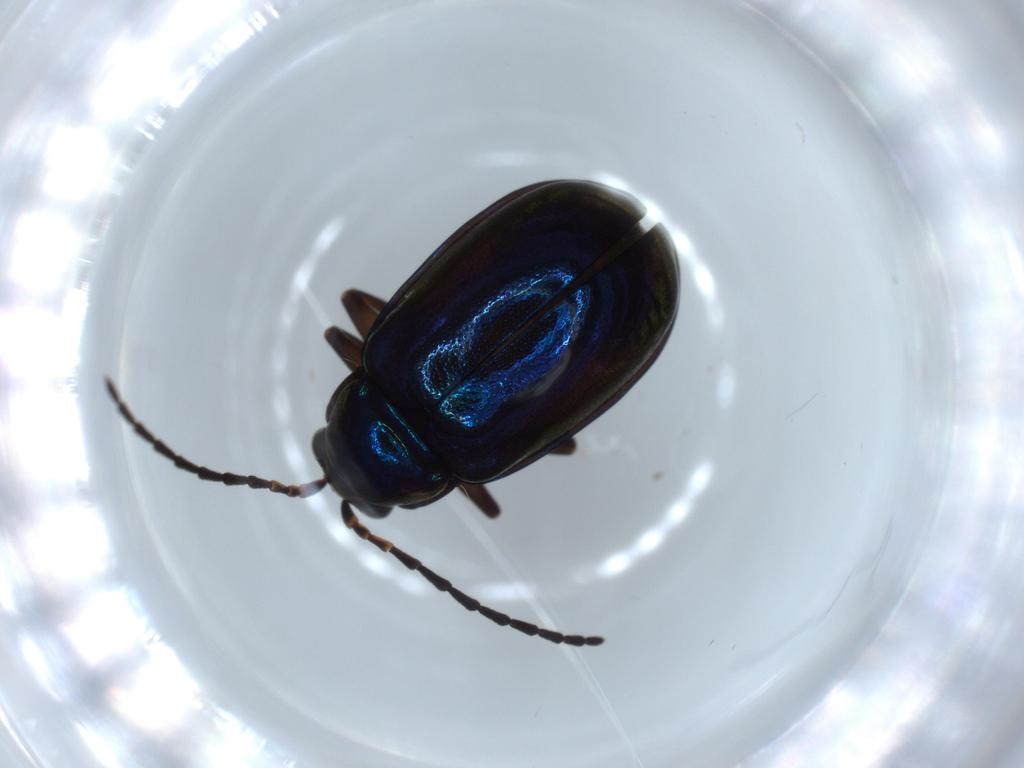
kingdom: Animalia
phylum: Arthropoda
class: Insecta
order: Coleoptera
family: Chrysomelidae
